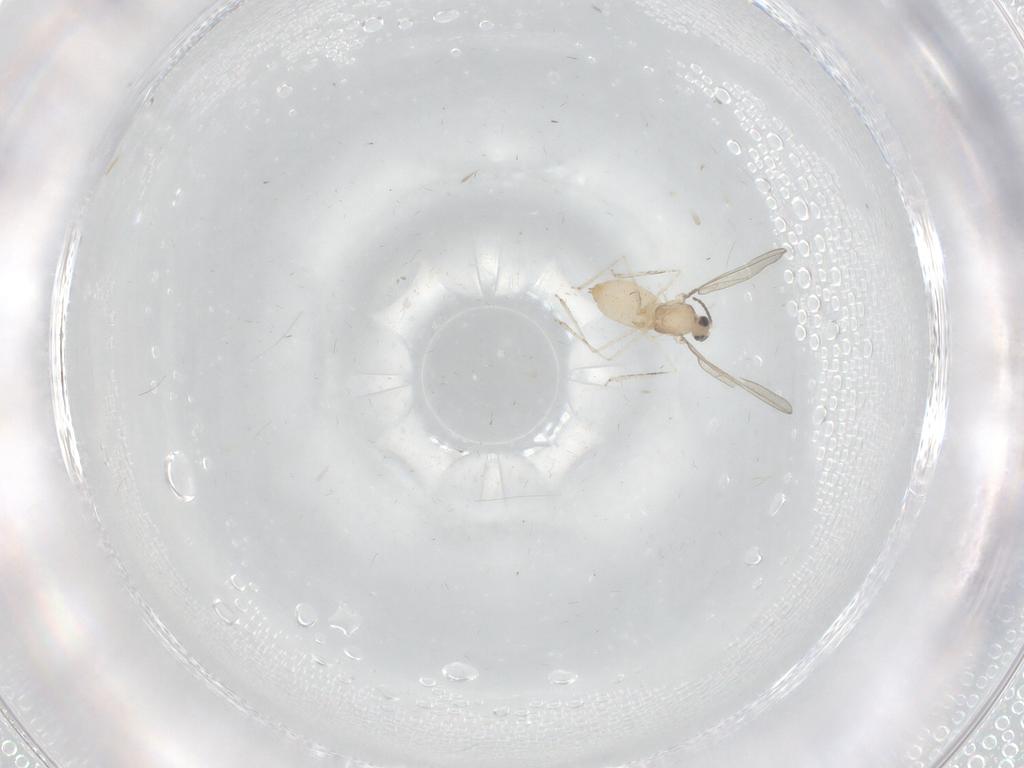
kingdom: Animalia
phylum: Arthropoda
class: Insecta
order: Diptera
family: Cecidomyiidae
